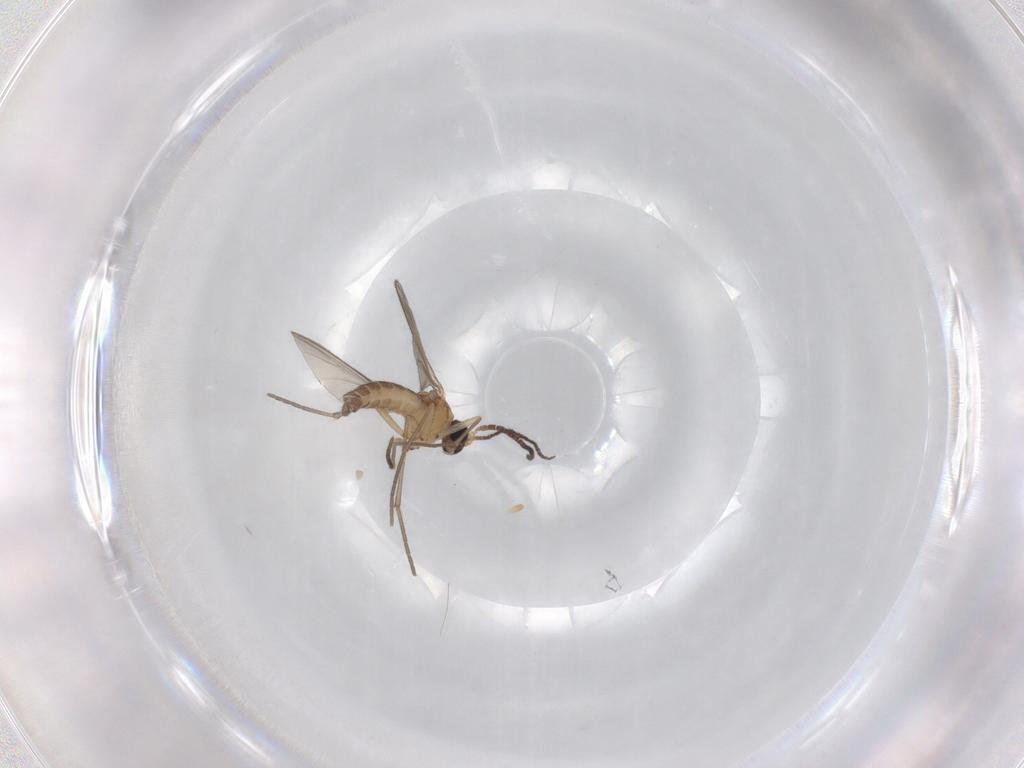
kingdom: Animalia
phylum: Arthropoda
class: Insecta
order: Diptera
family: Sciaridae
